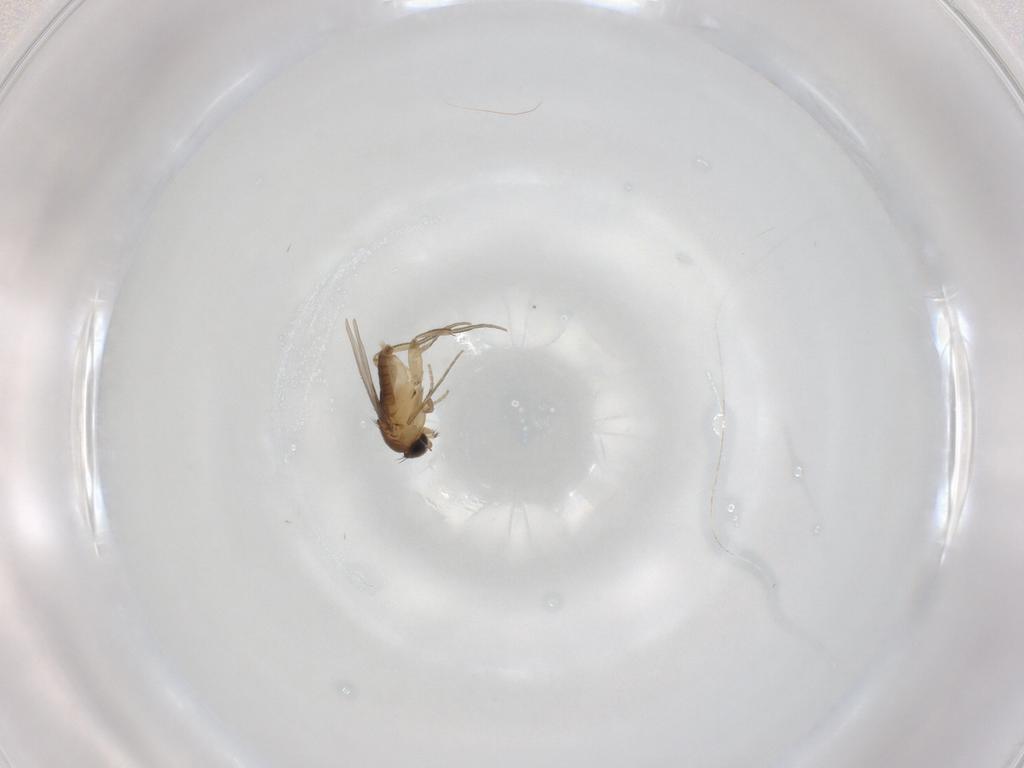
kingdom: Animalia
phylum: Arthropoda
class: Insecta
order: Diptera
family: Phoridae
